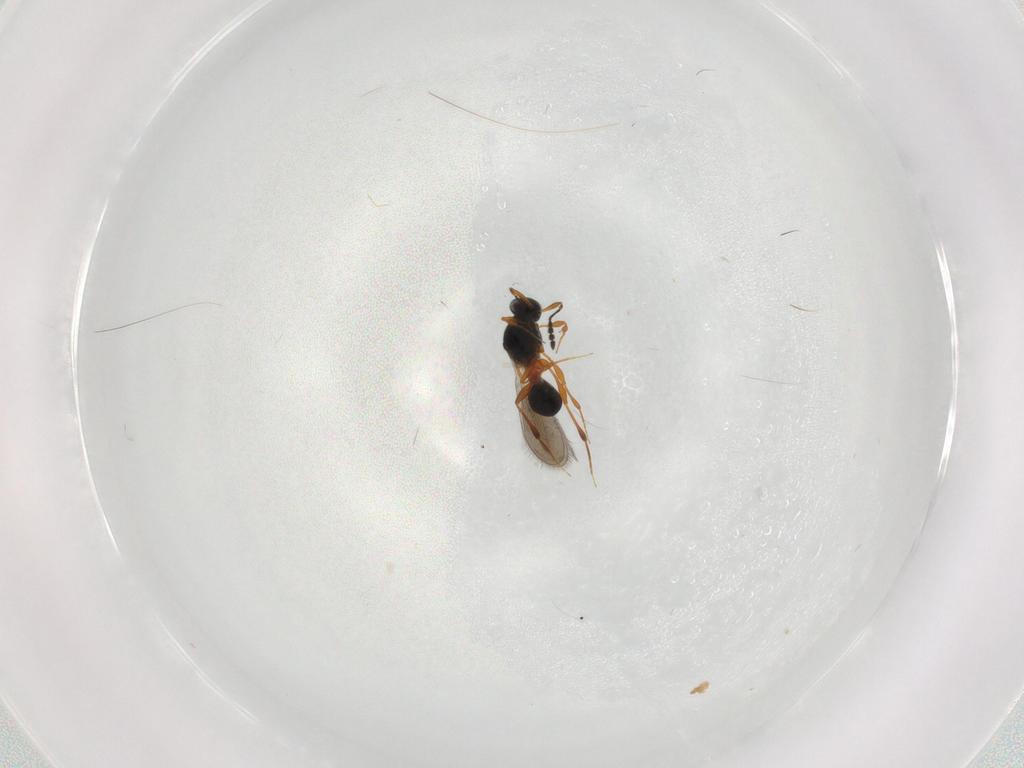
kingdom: Animalia
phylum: Arthropoda
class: Insecta
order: Hymenoptera
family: Platygastridae
